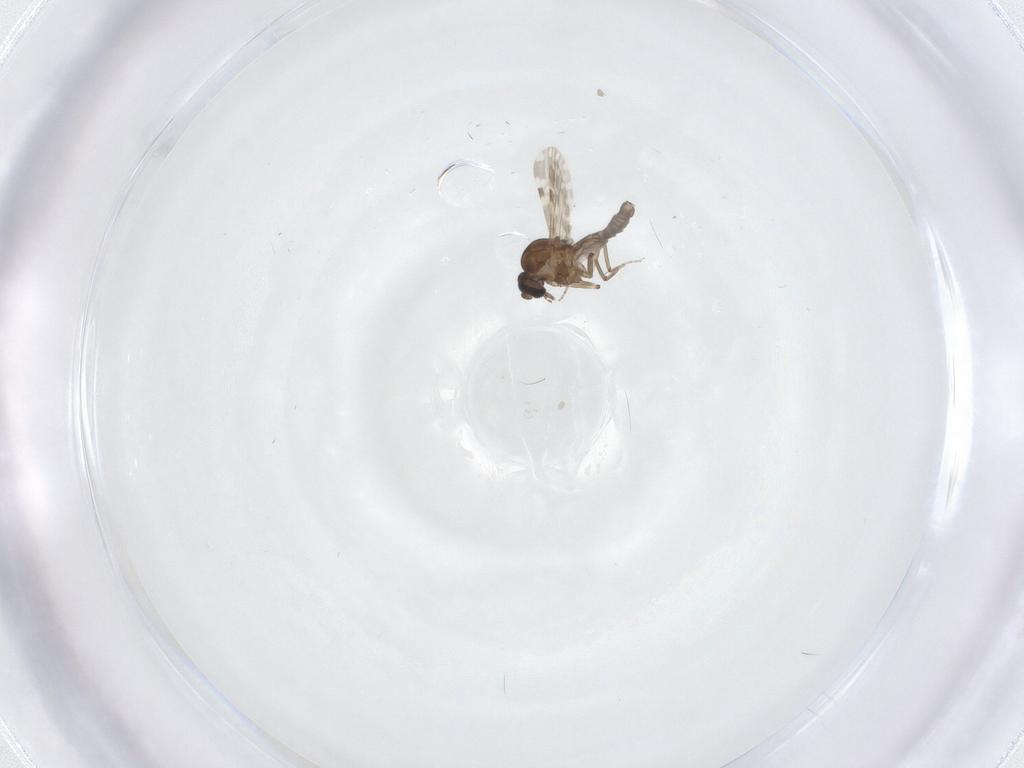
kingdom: Animalia
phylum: Arthropoda
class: Insecta
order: Diptera
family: Ceratopogonidae
